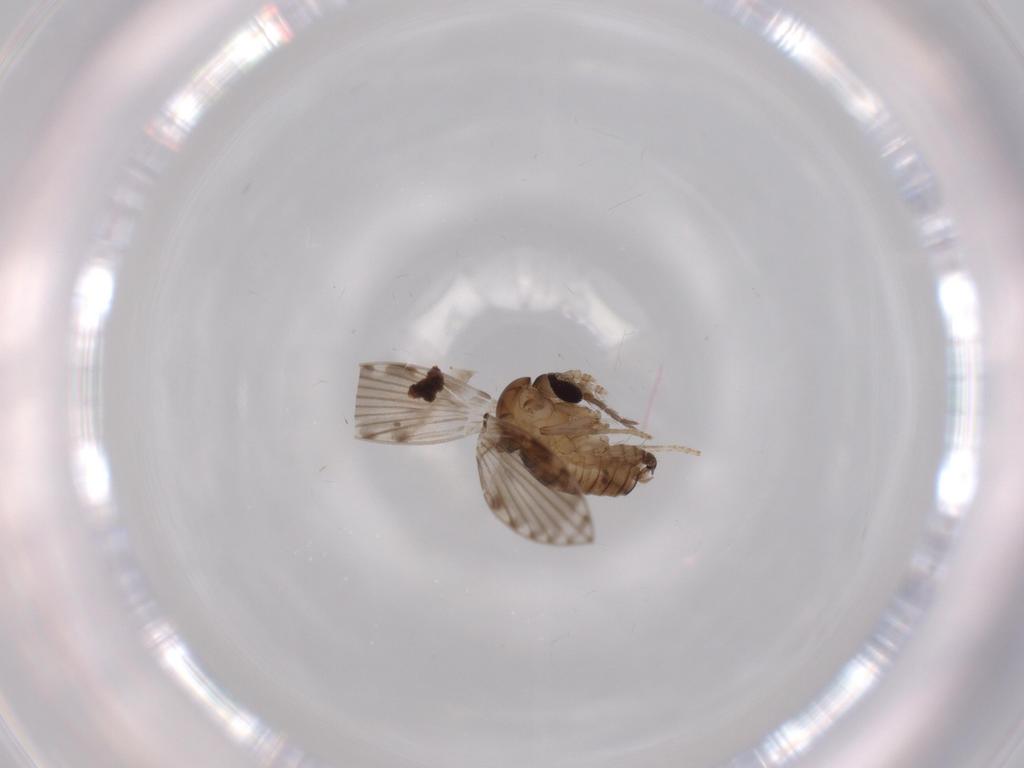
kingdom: Animalia
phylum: Arthropoda
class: Insecta
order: Diptera
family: Psychodidae
